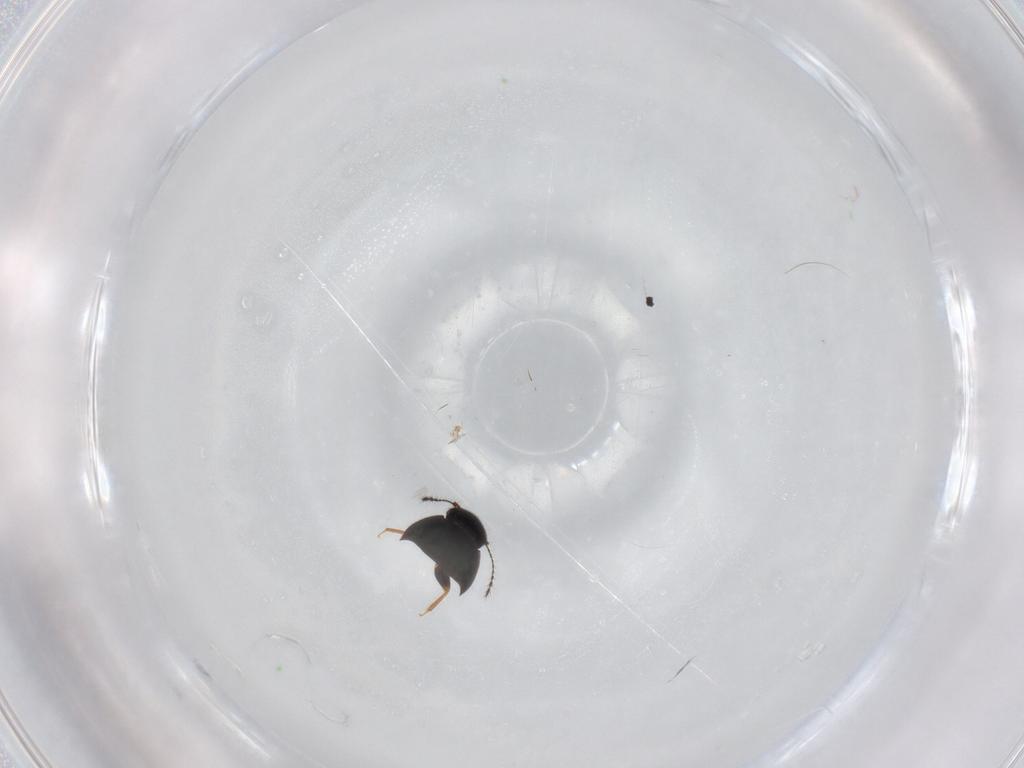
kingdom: Animalia
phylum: Arthropoda
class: Insecta
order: Coleoptera
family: Ptiliidae
